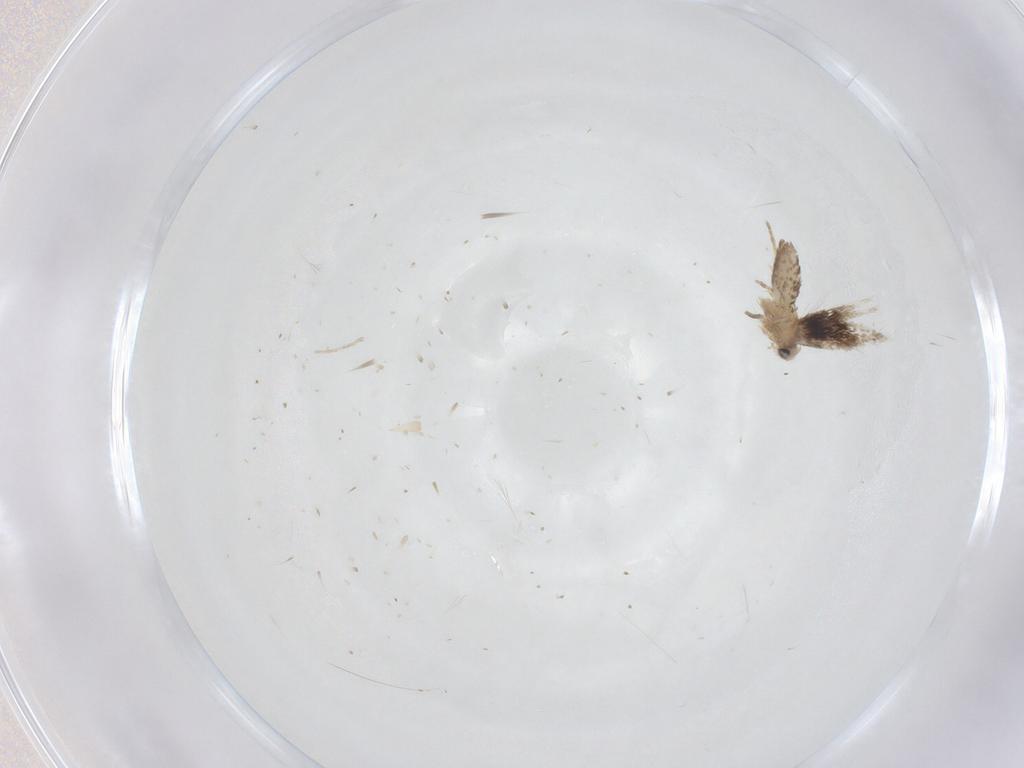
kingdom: Animalia
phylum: Arthropoda
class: Insecta
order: Lepidoptera
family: Nepticulidae
